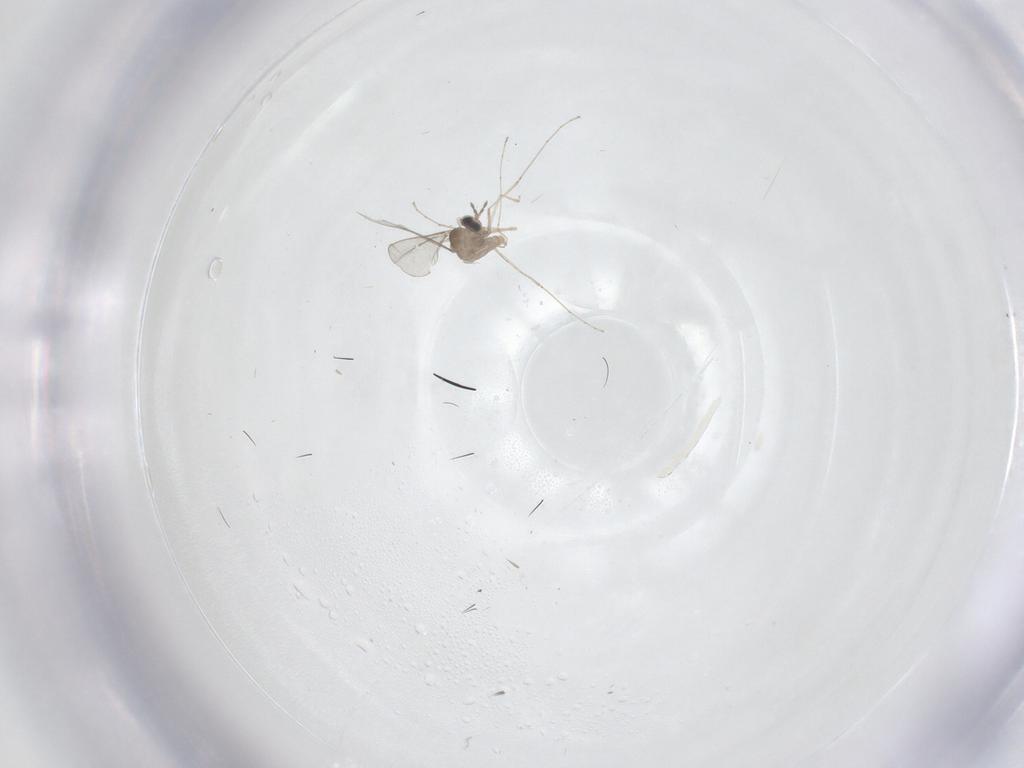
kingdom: Animalia
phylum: Arthropoda
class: Insecta
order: Diptera
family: Cecidomyiidae
